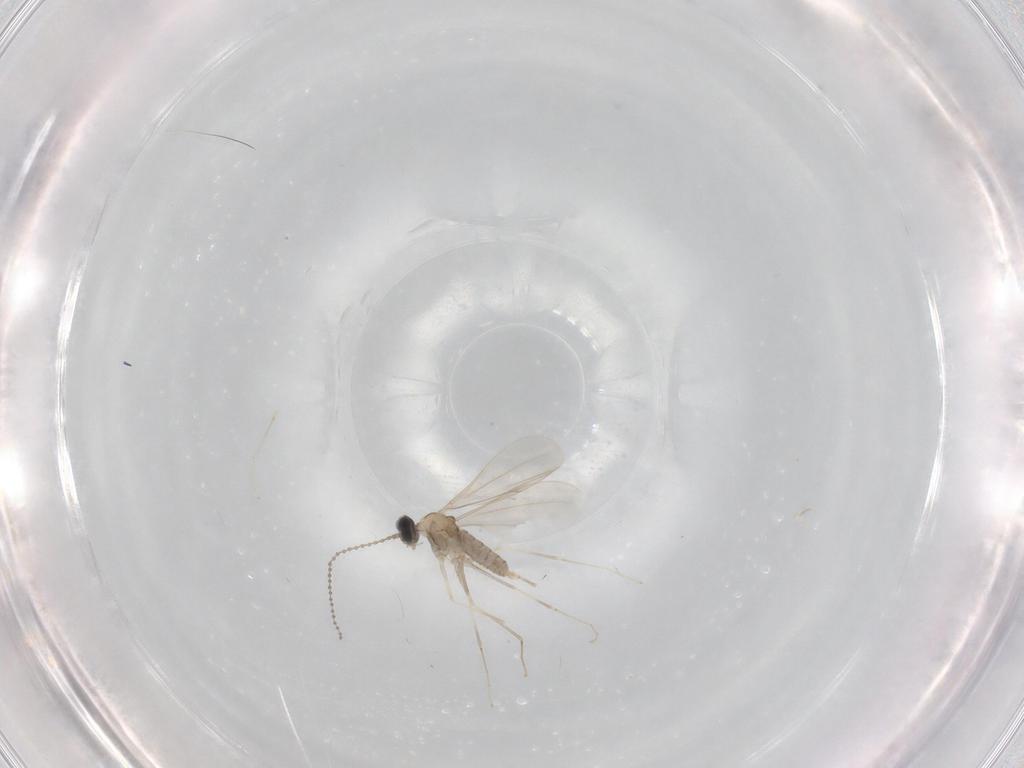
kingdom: Animalia
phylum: Arthropoda
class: Insecta
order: Diptera
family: Cecidomyiidae
